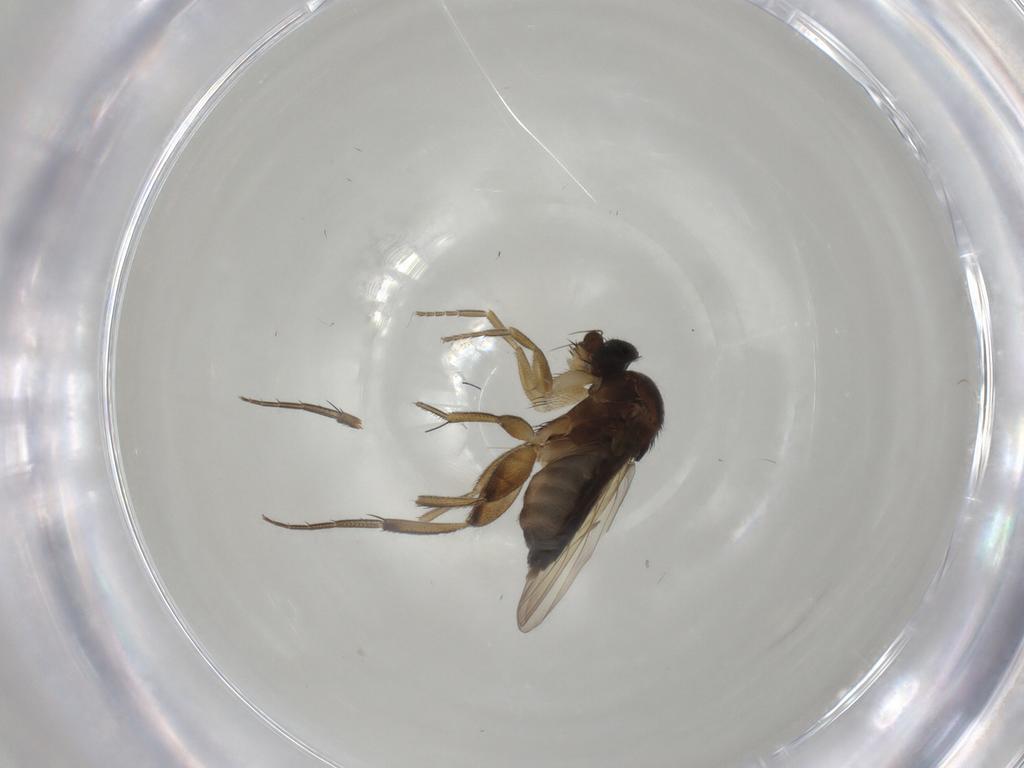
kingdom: Animalia
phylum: Arthropoda
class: Insecta
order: Diptera
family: Phoridae
